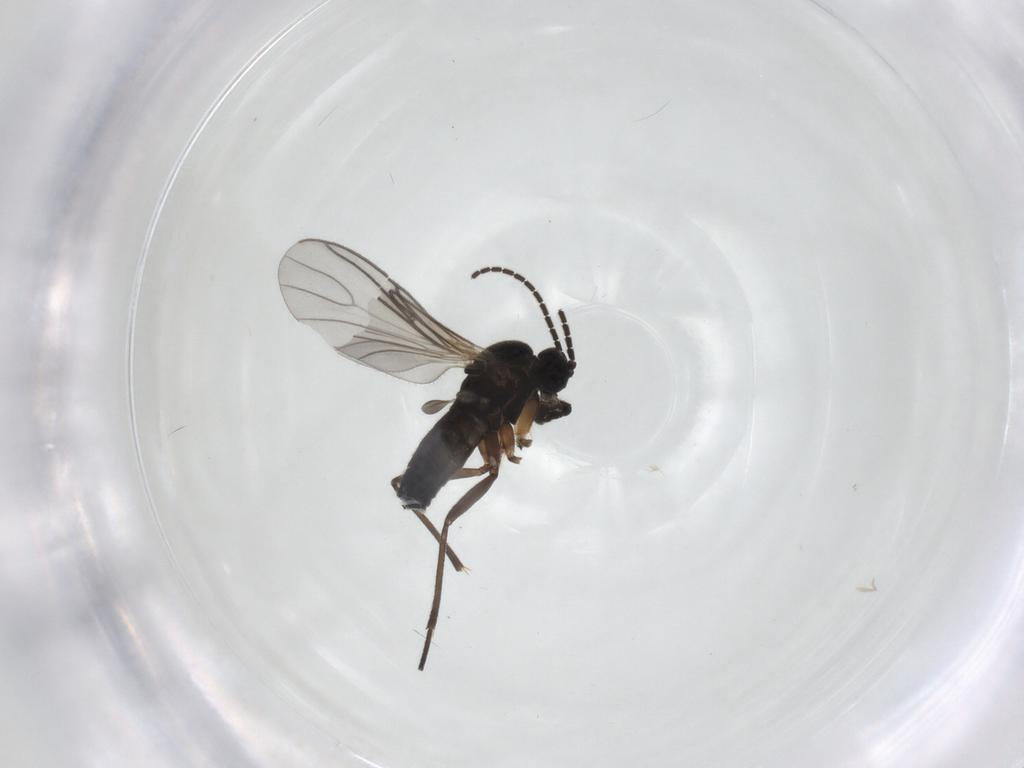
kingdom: Animalia
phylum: Arthropoda
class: Insecta
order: Diptera
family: Sciaridae
